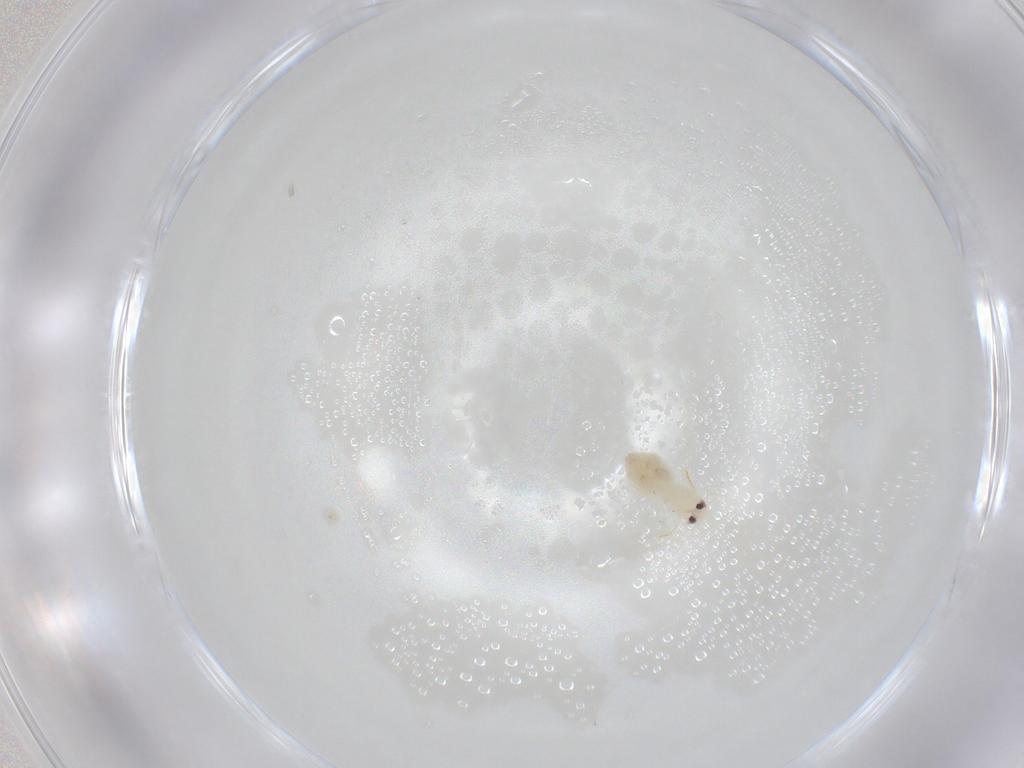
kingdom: Animalia
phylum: Arthropoda
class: Insecta
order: Hemiptera
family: Aleyrodidae
